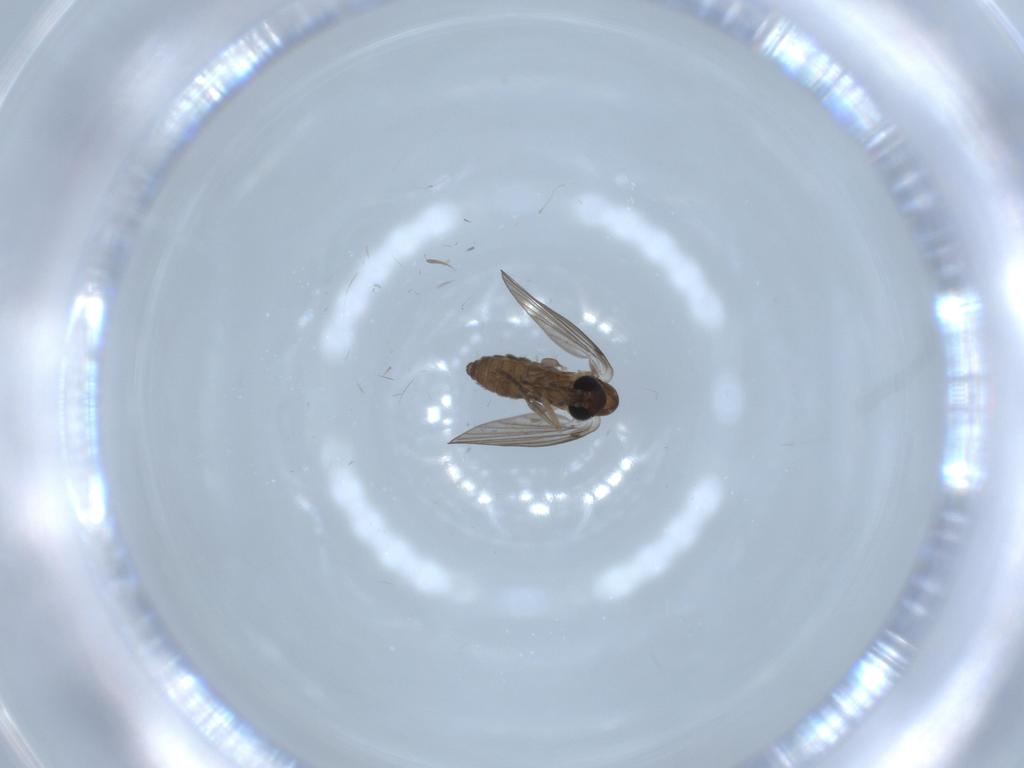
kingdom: Animalia
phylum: Arthropoda
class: Insecta
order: Diptera
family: Psychodidae
